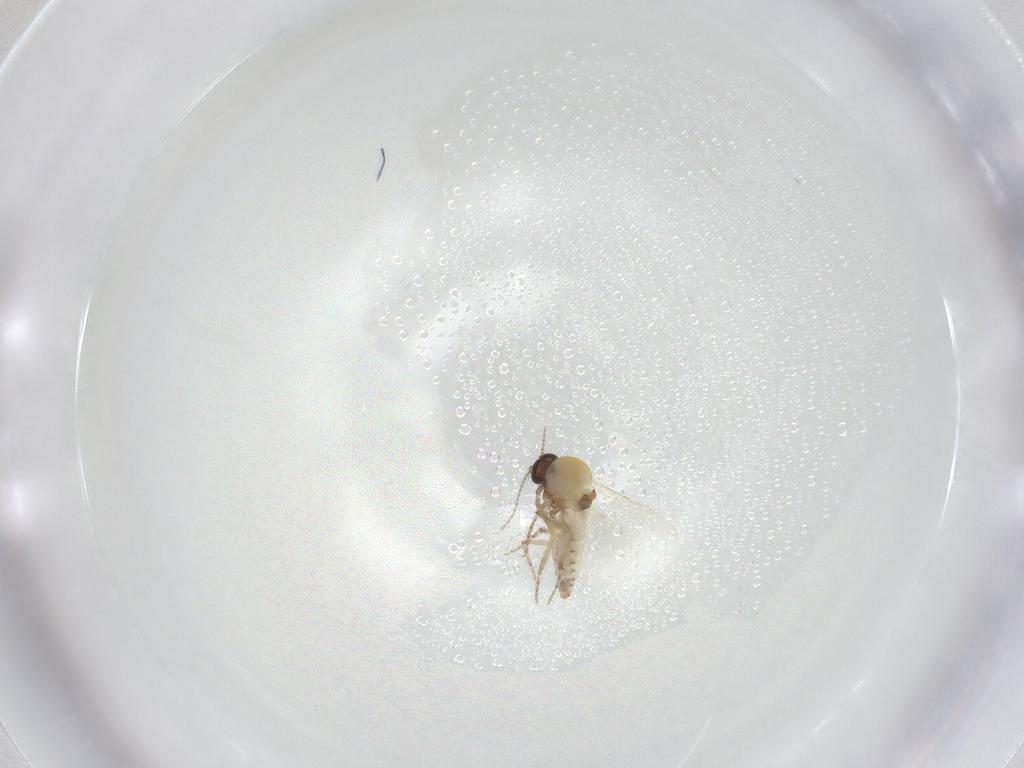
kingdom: Animalia
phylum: Arthropoda
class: Insecta
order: Diptera
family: Ceratopogonidae
